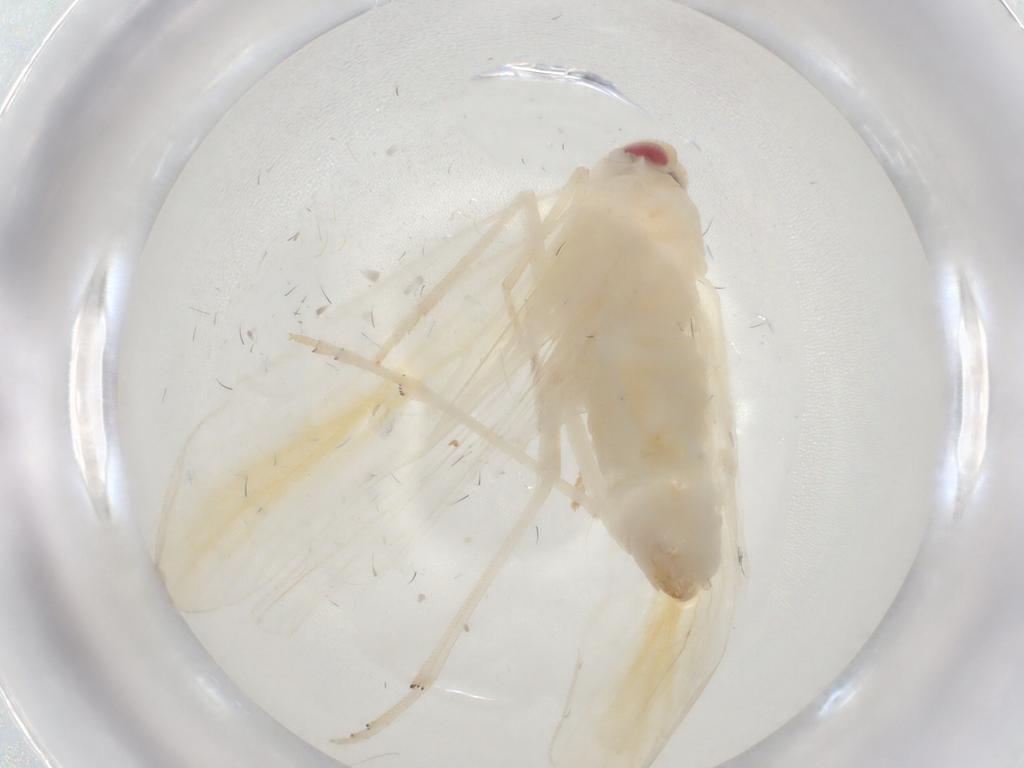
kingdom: Animalia
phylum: Arthropoda
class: Insecta
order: Hemiptera
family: Derbidae
